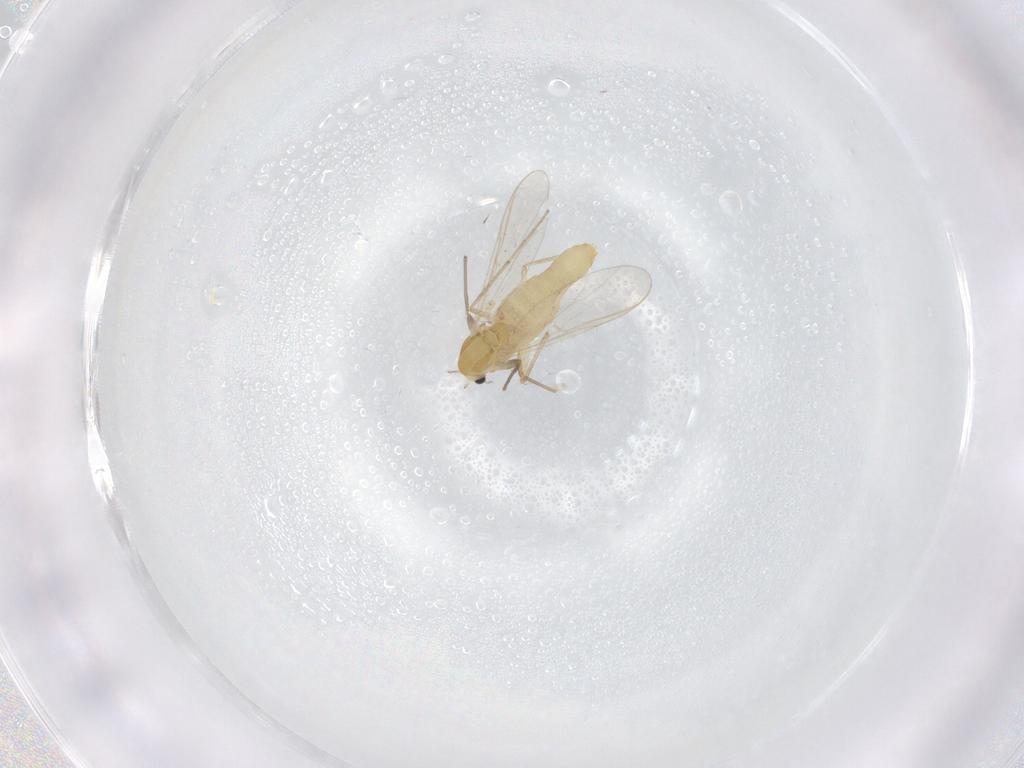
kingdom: Animalia
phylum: Arthropoda
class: Insecta
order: Diptera
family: Chironomidae
